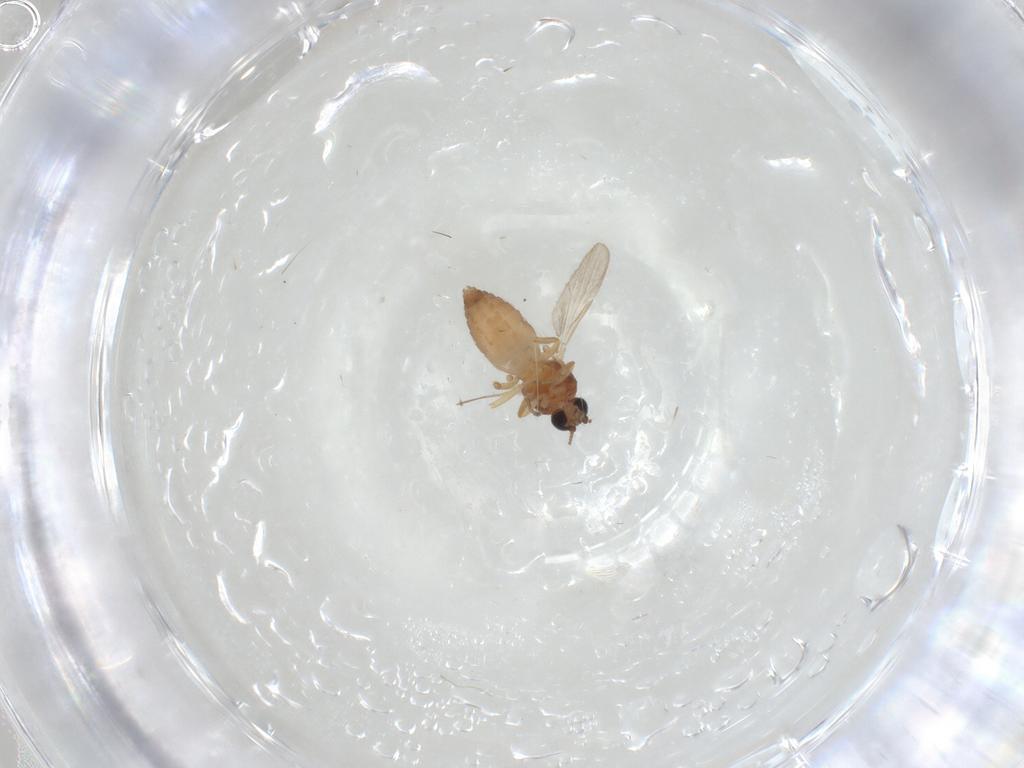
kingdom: Animalia
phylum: Arthropoda
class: Insecta
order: Diptera
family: Ceratopogonidae
